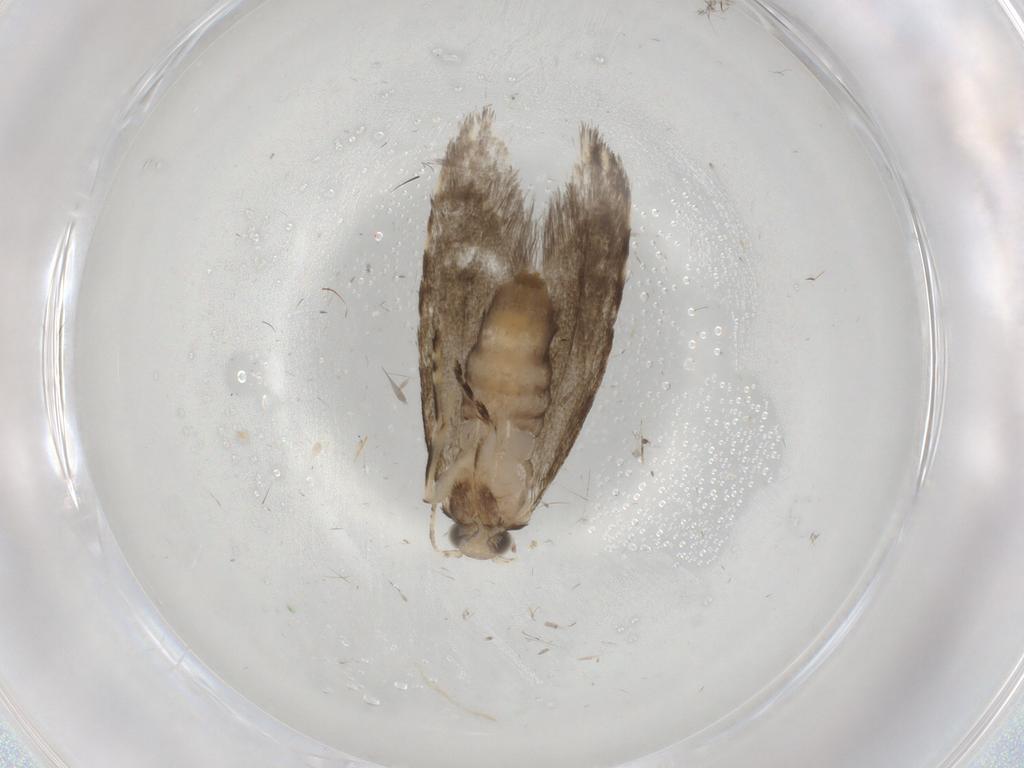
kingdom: Animalia
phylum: Arthropoda
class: Insecta
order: Lepidoptera
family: Tineidae
